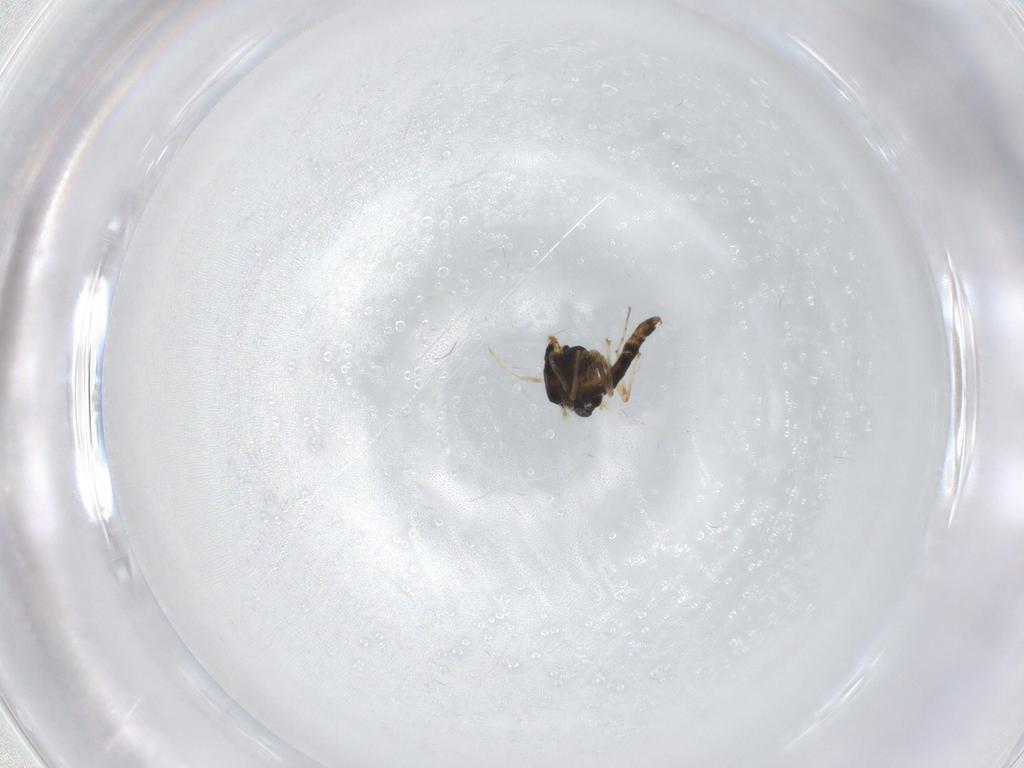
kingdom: Animalia
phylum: Arthropoda
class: Insecta
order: Diptera
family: Chironomidae
